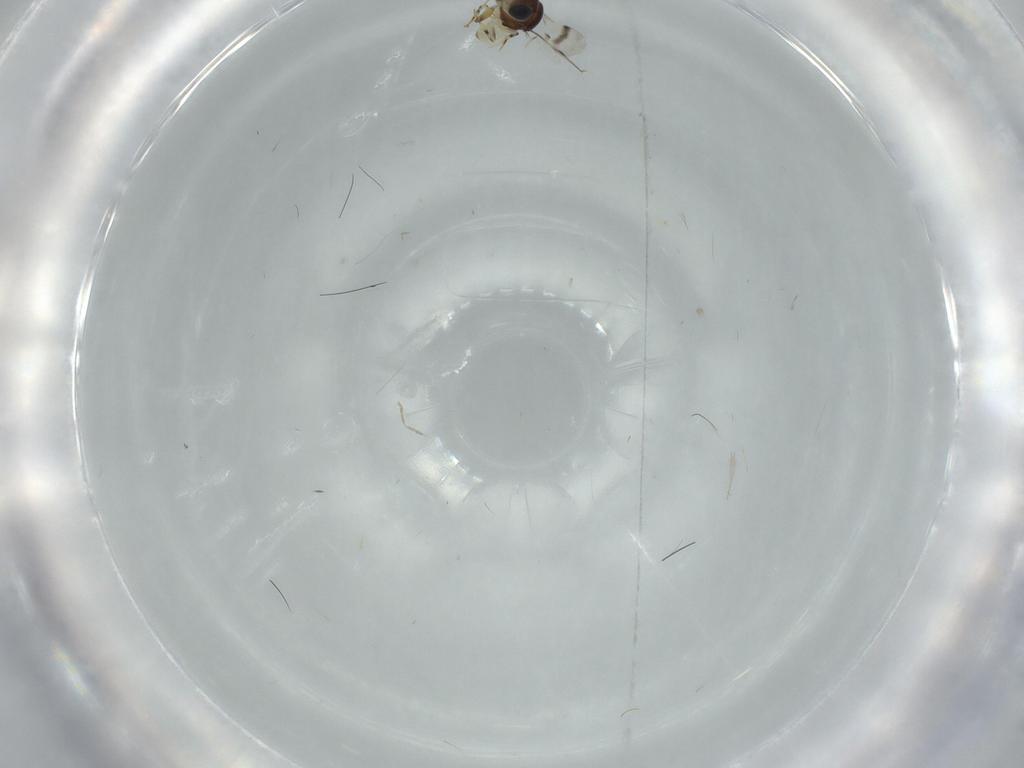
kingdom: Animalia
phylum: Arthropoda
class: Insecta
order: Hymenoptera
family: Scelionidae
